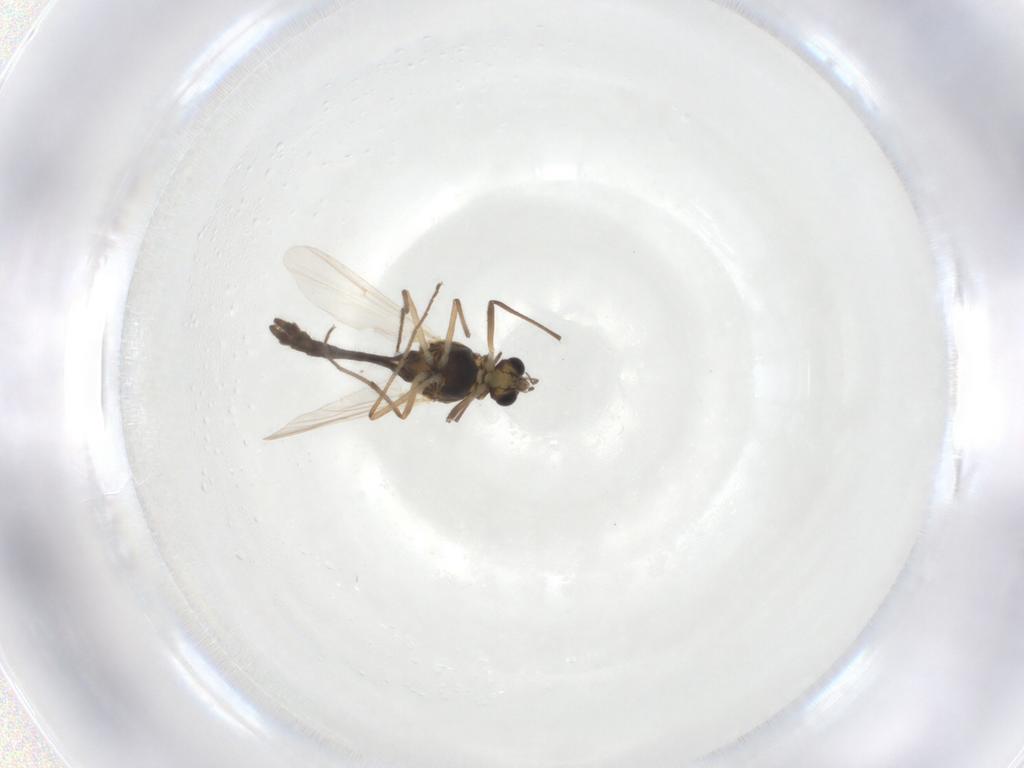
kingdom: Animalia
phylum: Arthropoda
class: Insecta
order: Diptera
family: Chironomidae
